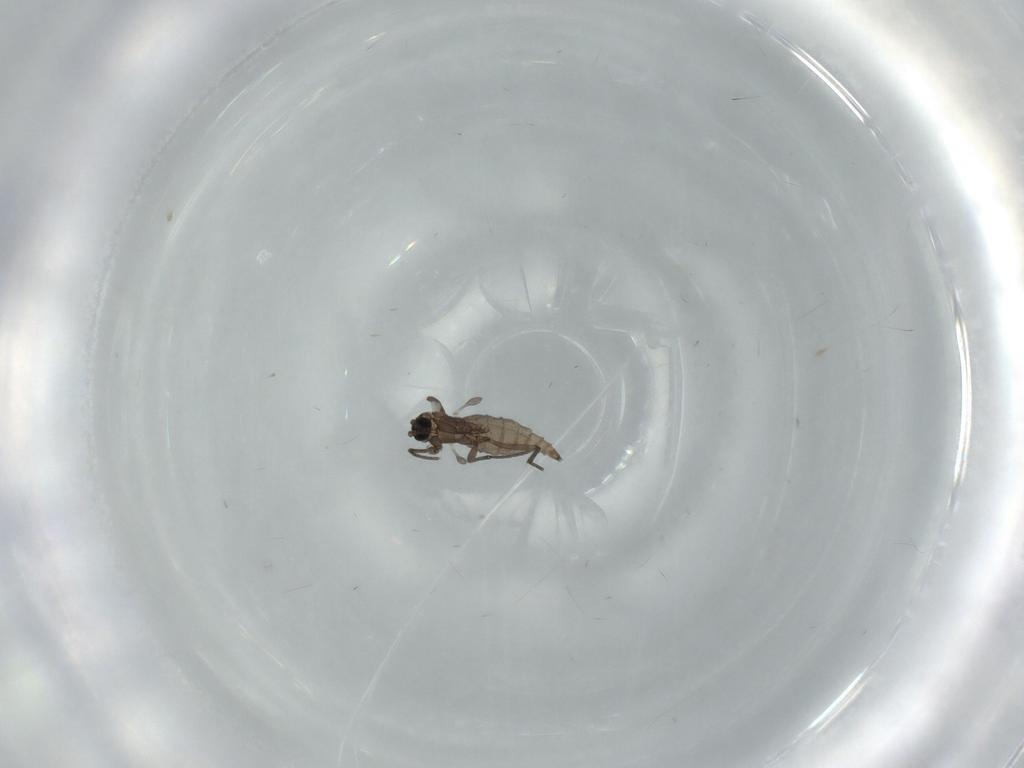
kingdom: Animalia
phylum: Arthropoda
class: Insecta
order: Diptera
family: Sciaridae
